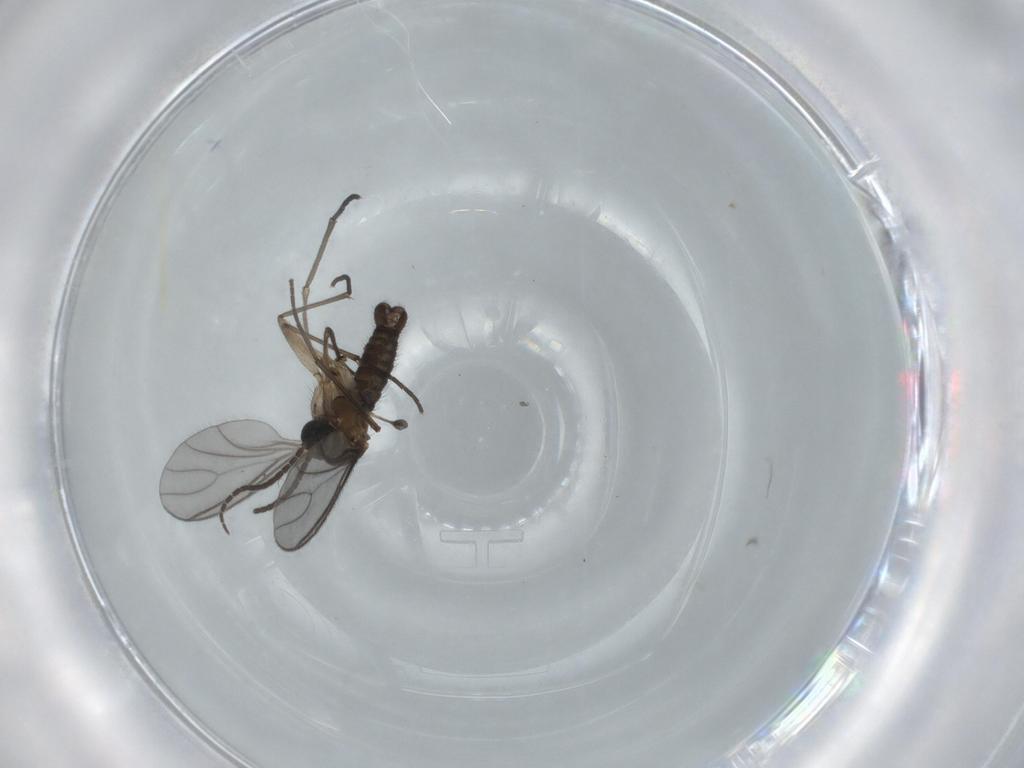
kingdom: Animalia
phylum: Arthropoda
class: Insecta
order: Diptera
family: Sciaridae
